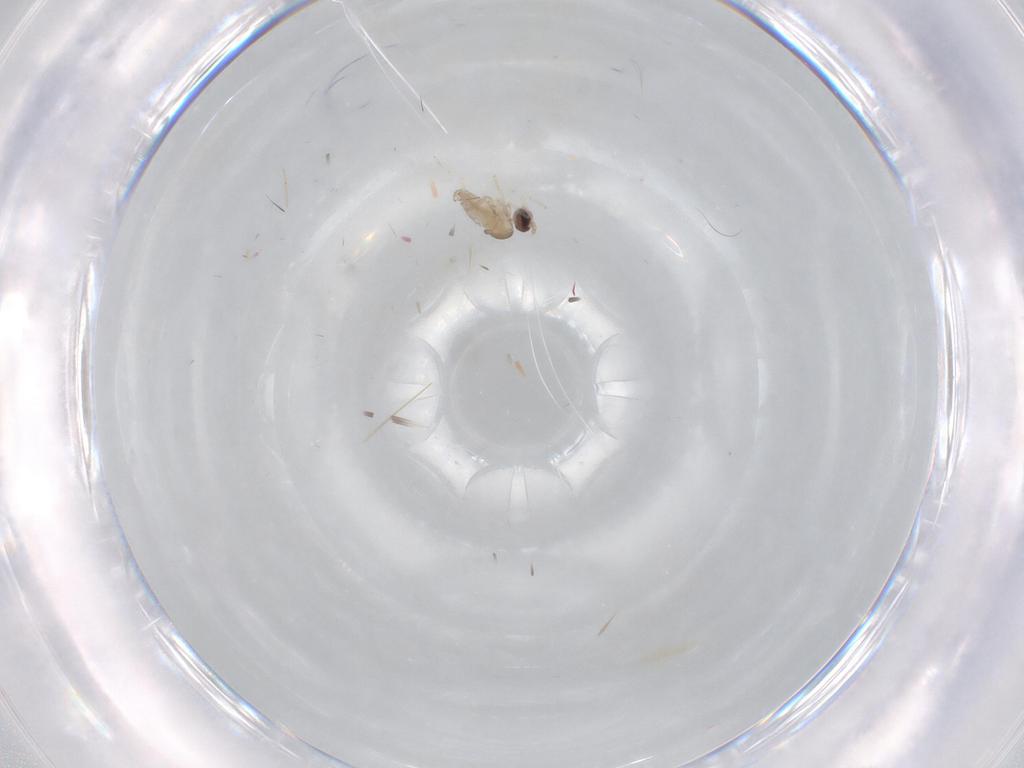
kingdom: Animalia
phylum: Arthropoda
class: Insecta
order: Diptera
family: Cecidomyiidae
